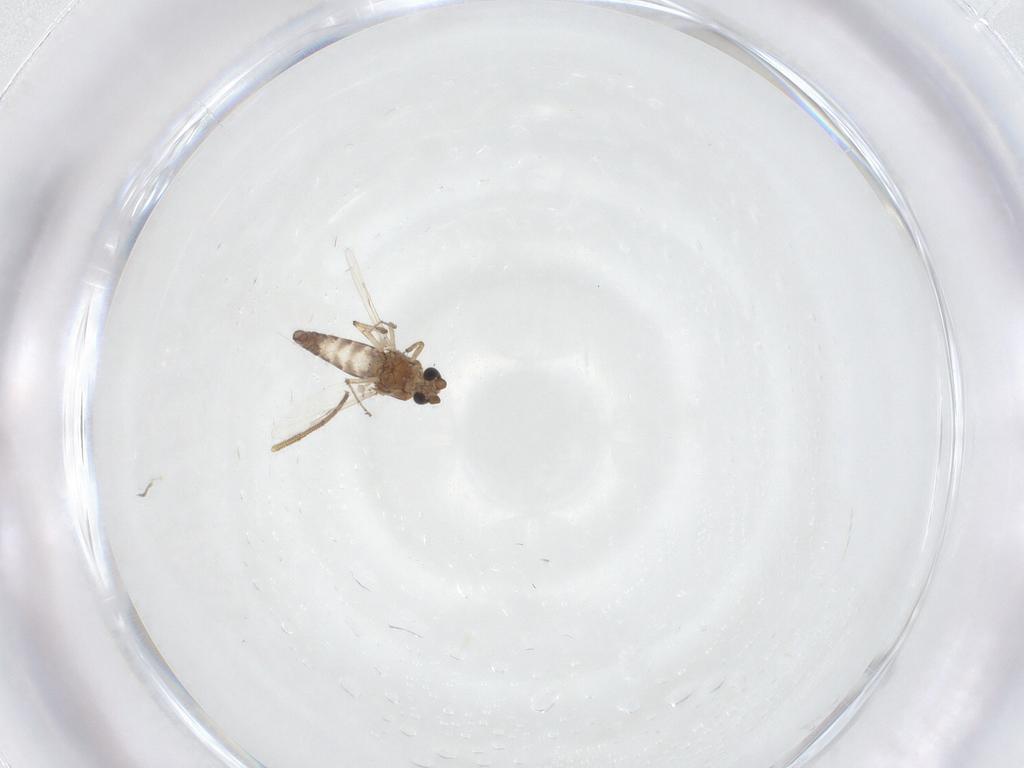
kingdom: Animalia
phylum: Arthropoda
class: Insecta
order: Diptera
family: Ceratopogonidae
